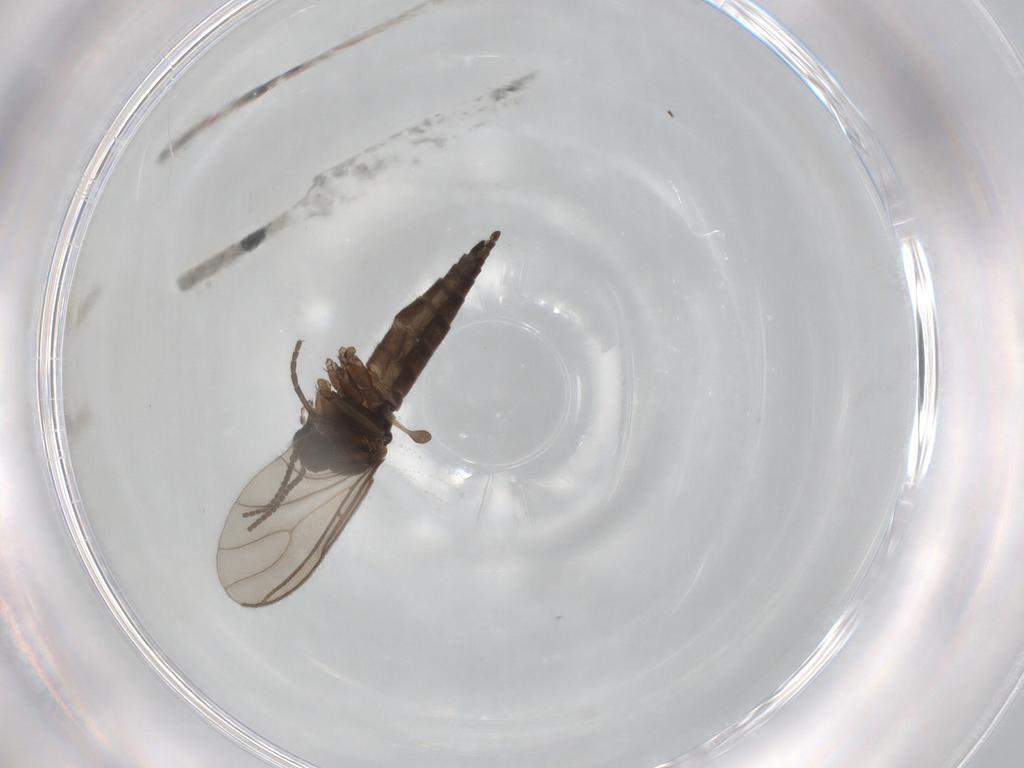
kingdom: Animalia
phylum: Arthropoda
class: Insecta
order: Diptera
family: Sciaridae
